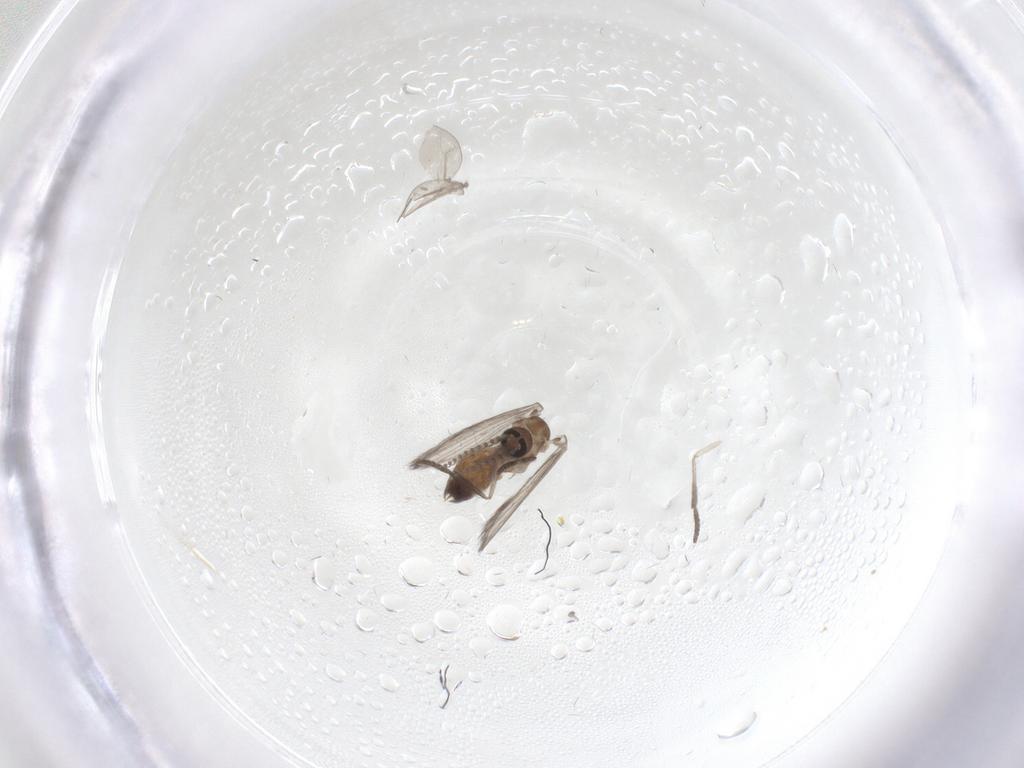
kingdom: Animalia
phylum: Arthropoda
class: Insecta
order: Diptera
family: Psychodidae
